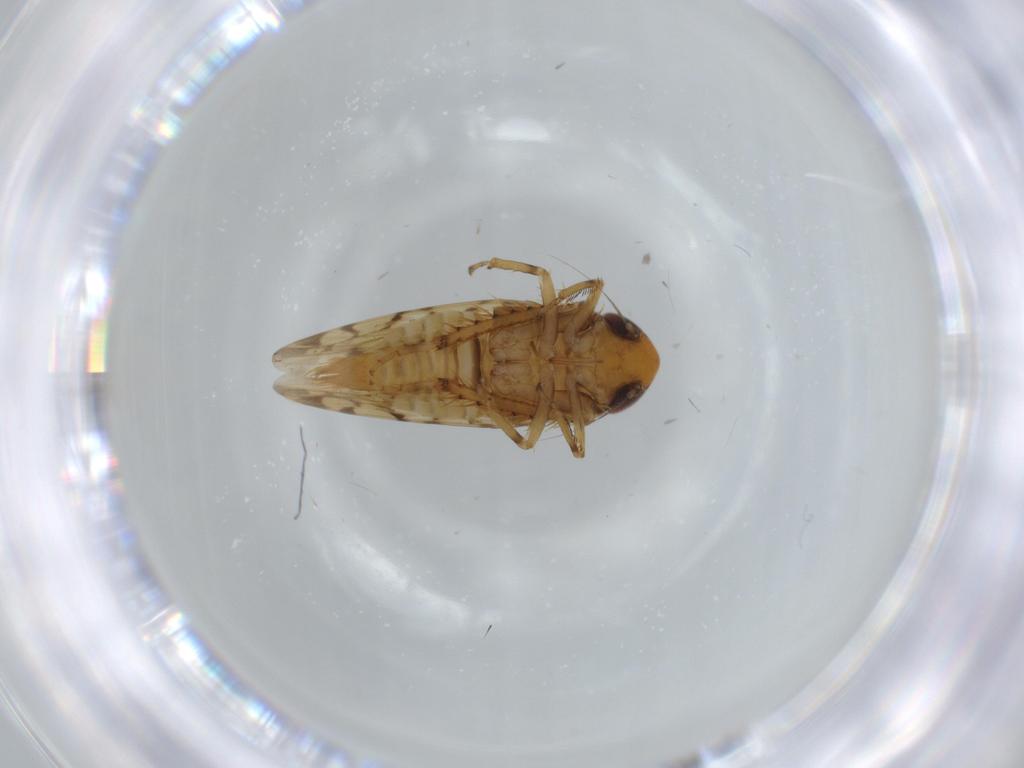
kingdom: Animalia
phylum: Arthropoda
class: Insecta
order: Hemiptera
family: Cicadellidae
